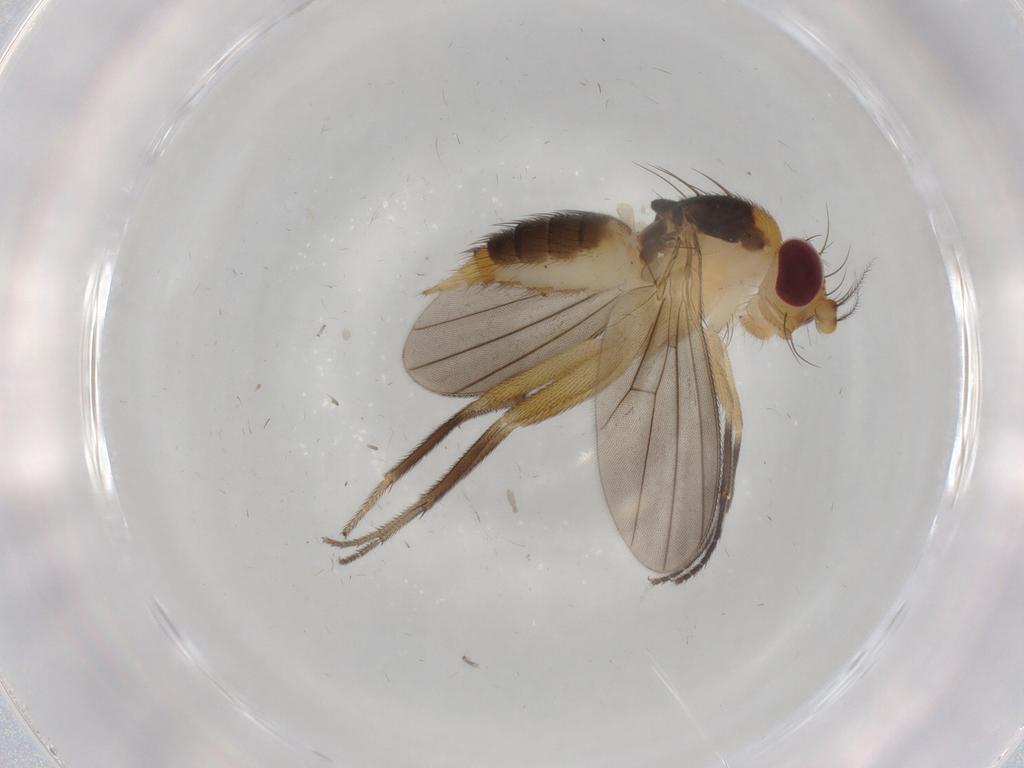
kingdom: Animalia
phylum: Arthropoda
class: Insecta
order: Diptera
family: Clusiidae
